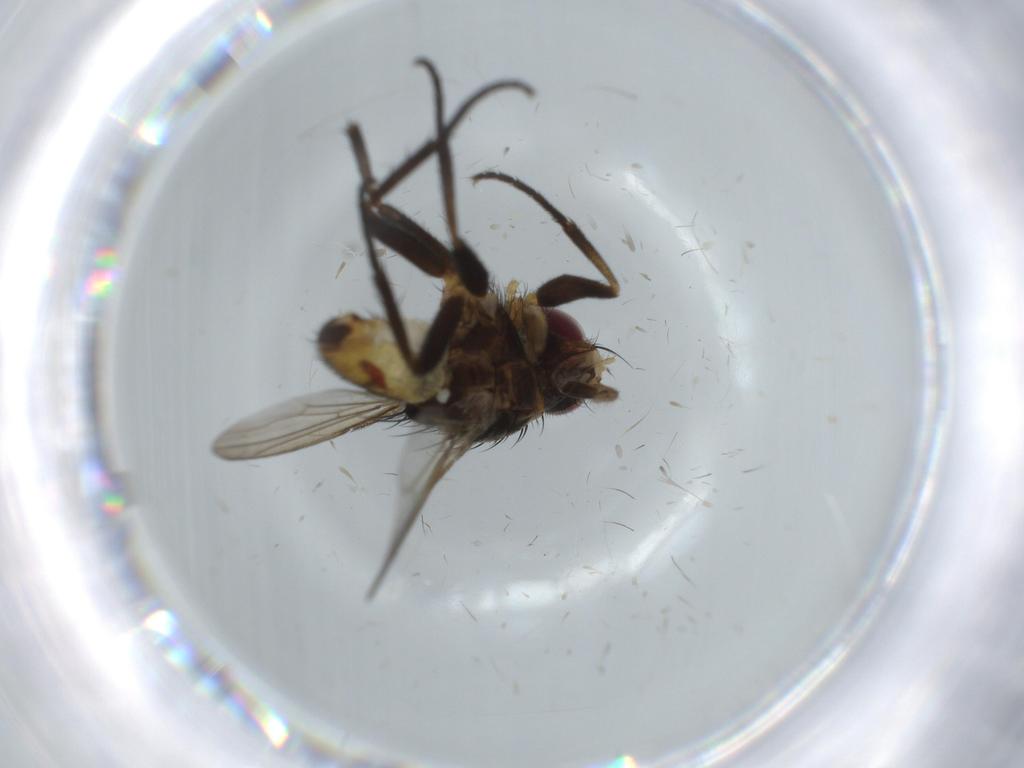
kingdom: Animalia
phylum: Arthropoda
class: Insecta
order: Diptera
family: Anthomyiidae
